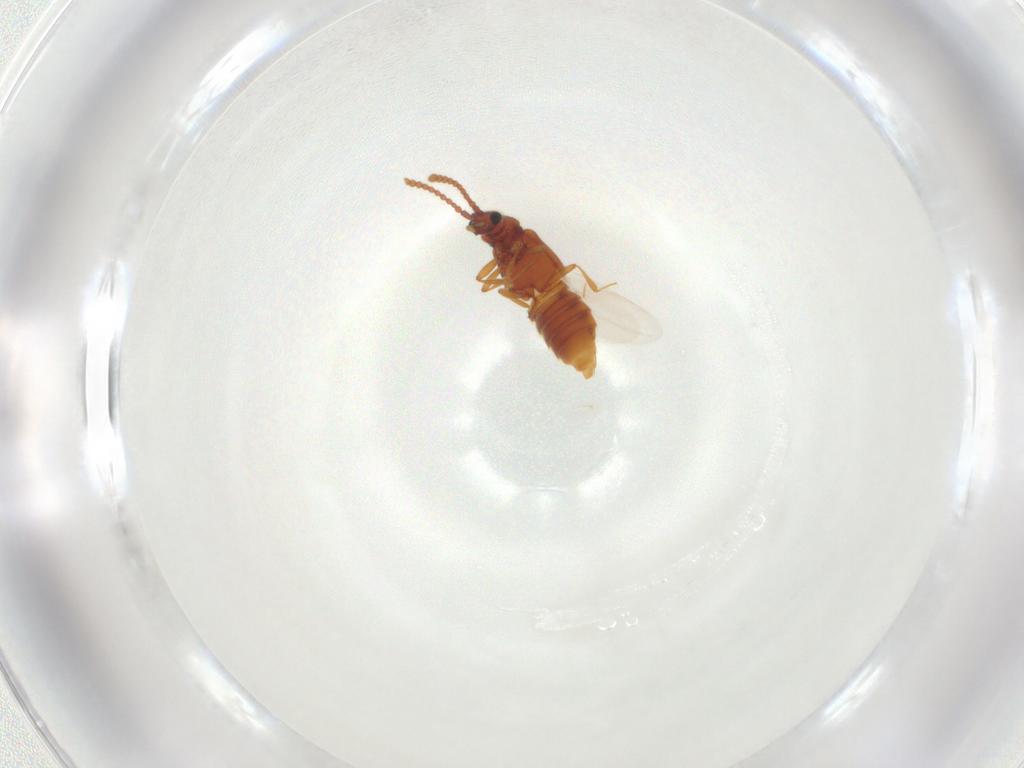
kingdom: Animalia
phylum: Arthropoda
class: Insecta
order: Coleoptera
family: Staphylinidae
